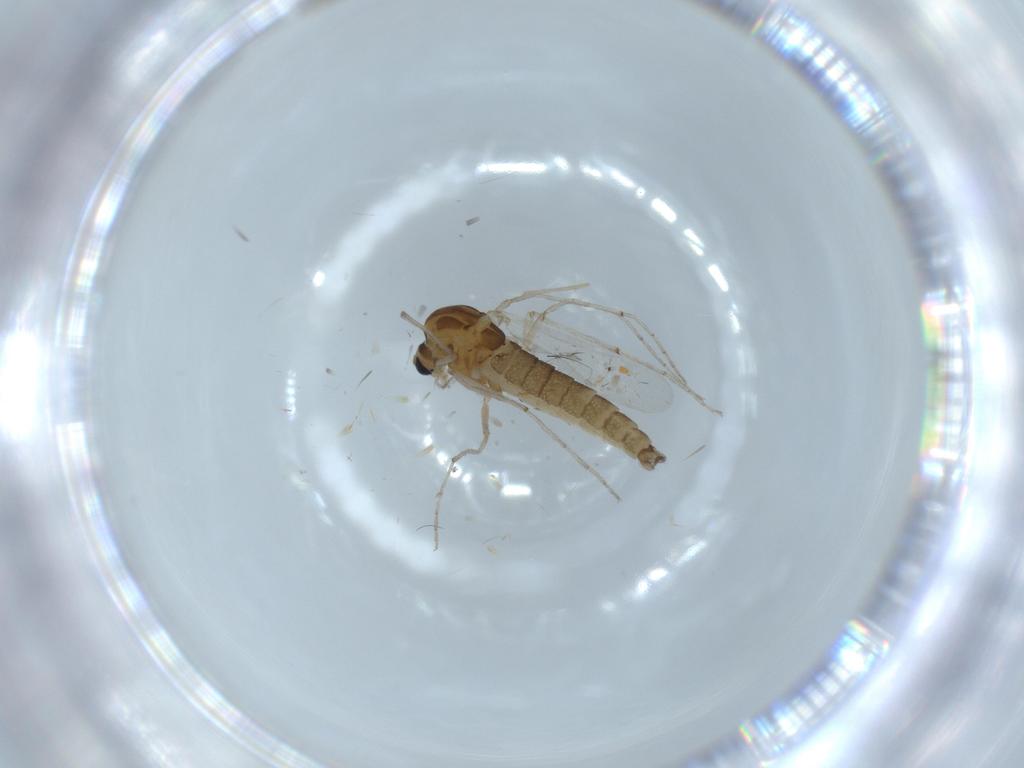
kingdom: Animalia
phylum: Arthropoda
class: Insecta
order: Diptera
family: Chironomidae
